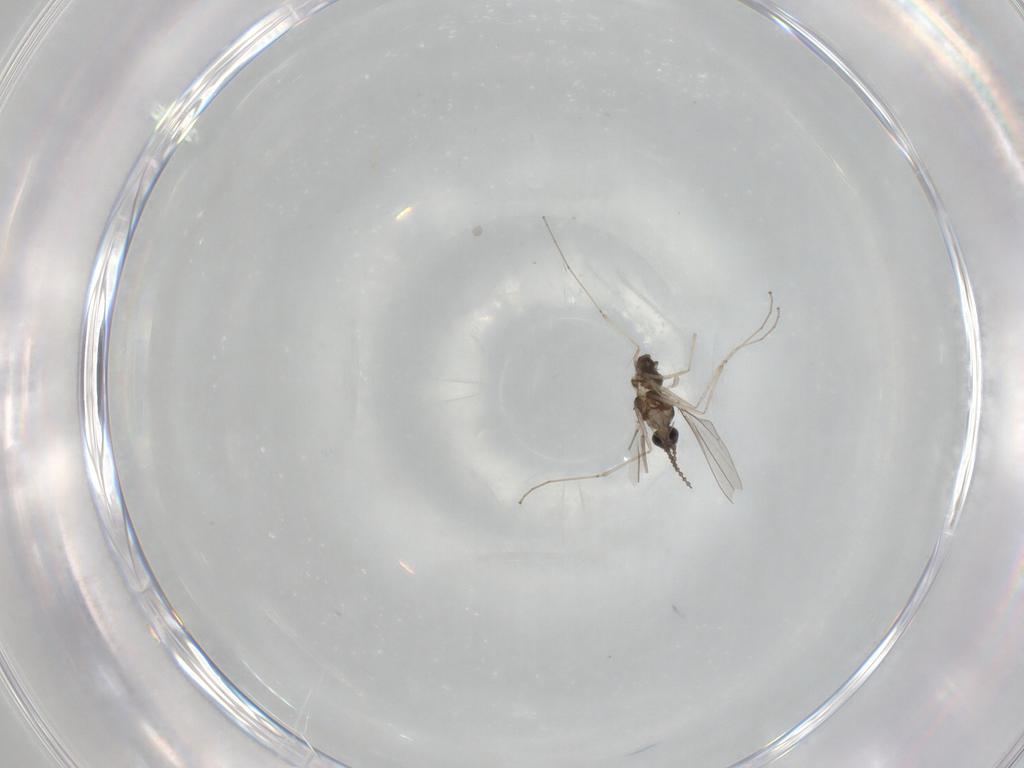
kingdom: Animalia
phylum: Arthropoda
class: Insecta
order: Diptera
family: Cecidomyiidae
